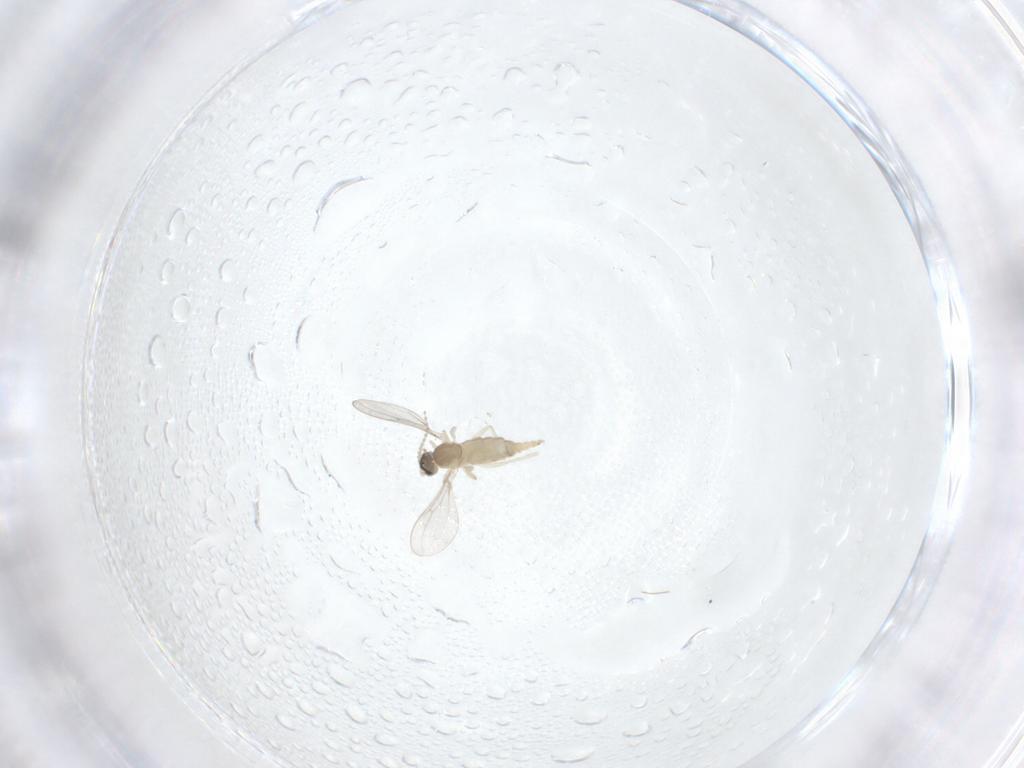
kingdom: Animalia
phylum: Arthropoda
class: Insecta
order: Diptera
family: Cecidomyiidae
